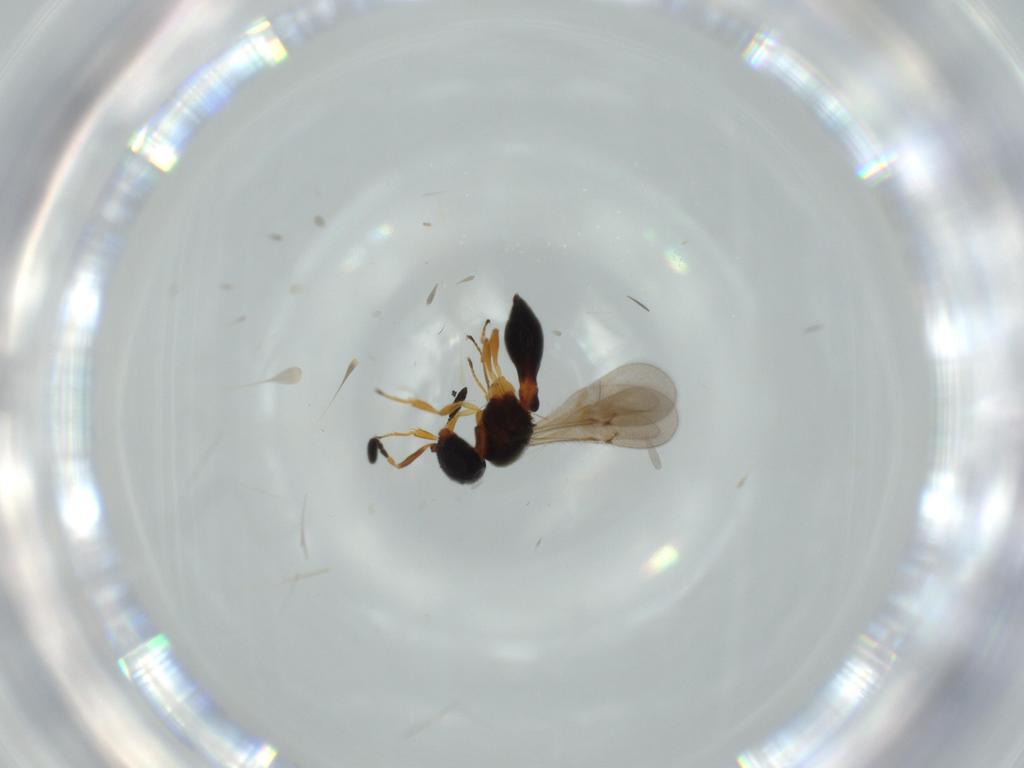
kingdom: Animalia
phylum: Arthropoda
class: Insecta
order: Hymenoptera
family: Scelionidae
